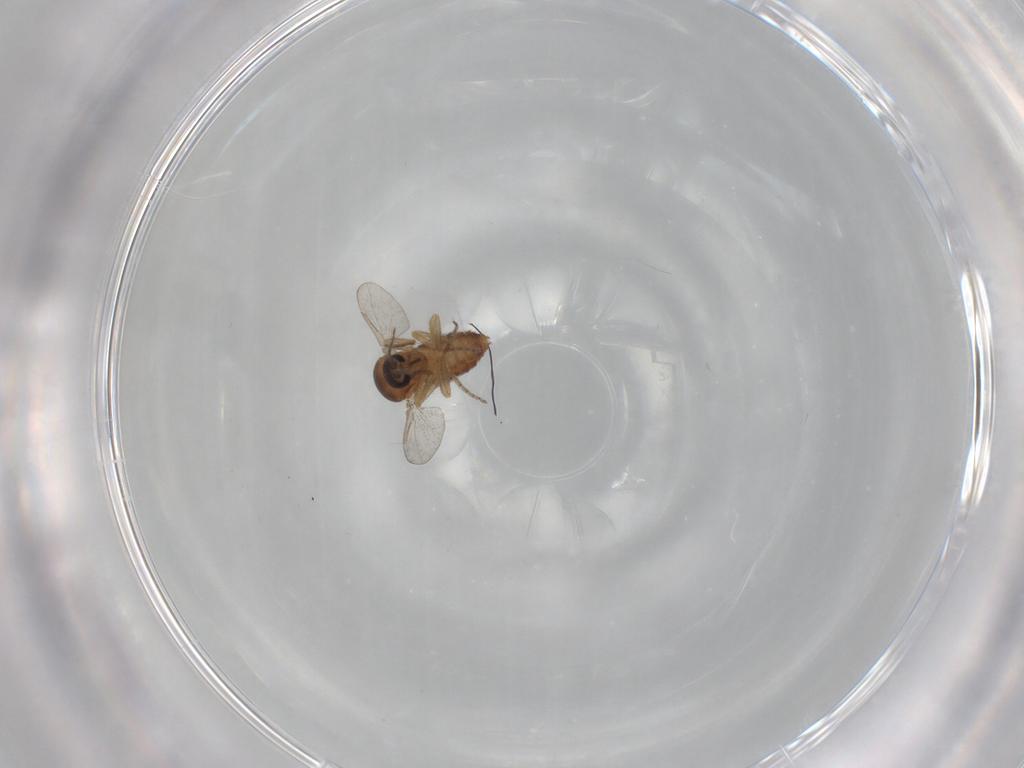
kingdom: Animalia
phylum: Arthropoda
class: Insecta
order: Diptera
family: Ceratopogonidae
